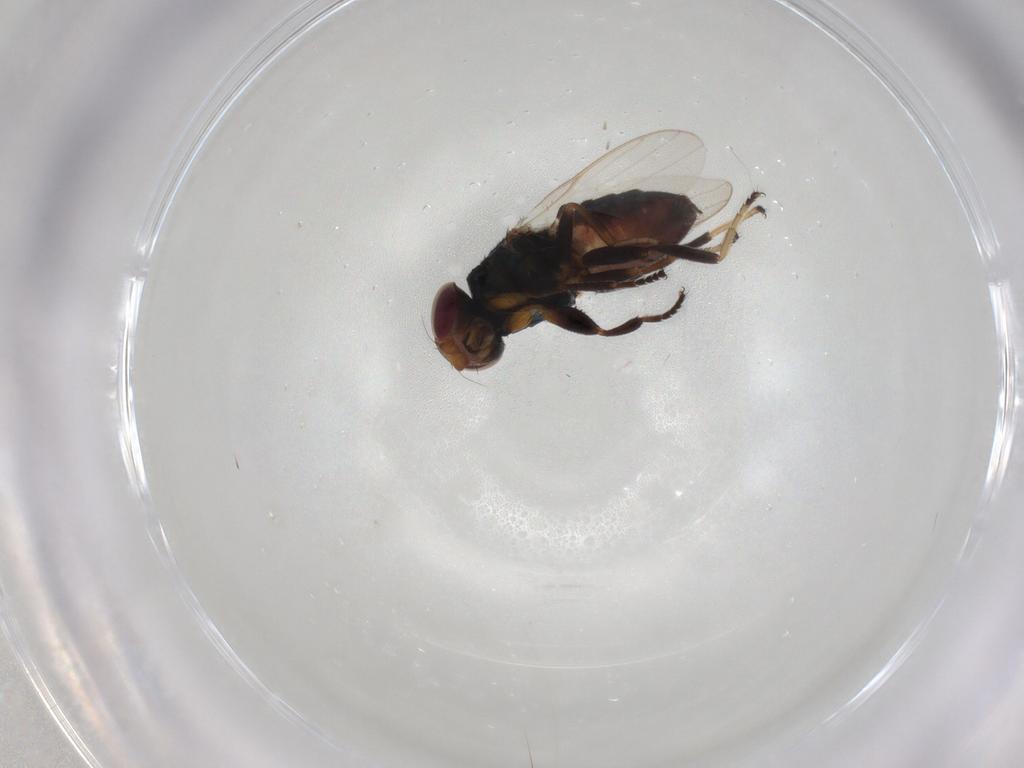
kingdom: Animalia
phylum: Arthropoda
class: Insecta
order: Diptera
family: Chloropidae
